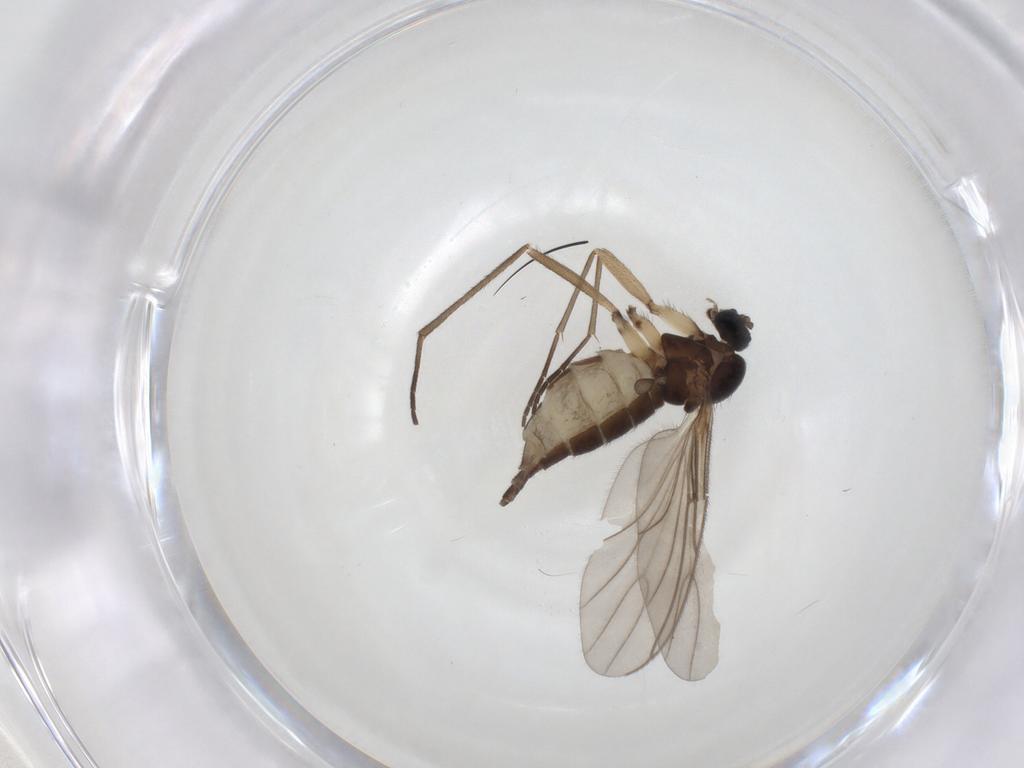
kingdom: Animalia
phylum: Arthropoda
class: Insecta
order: Diptera
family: Sciaridae
